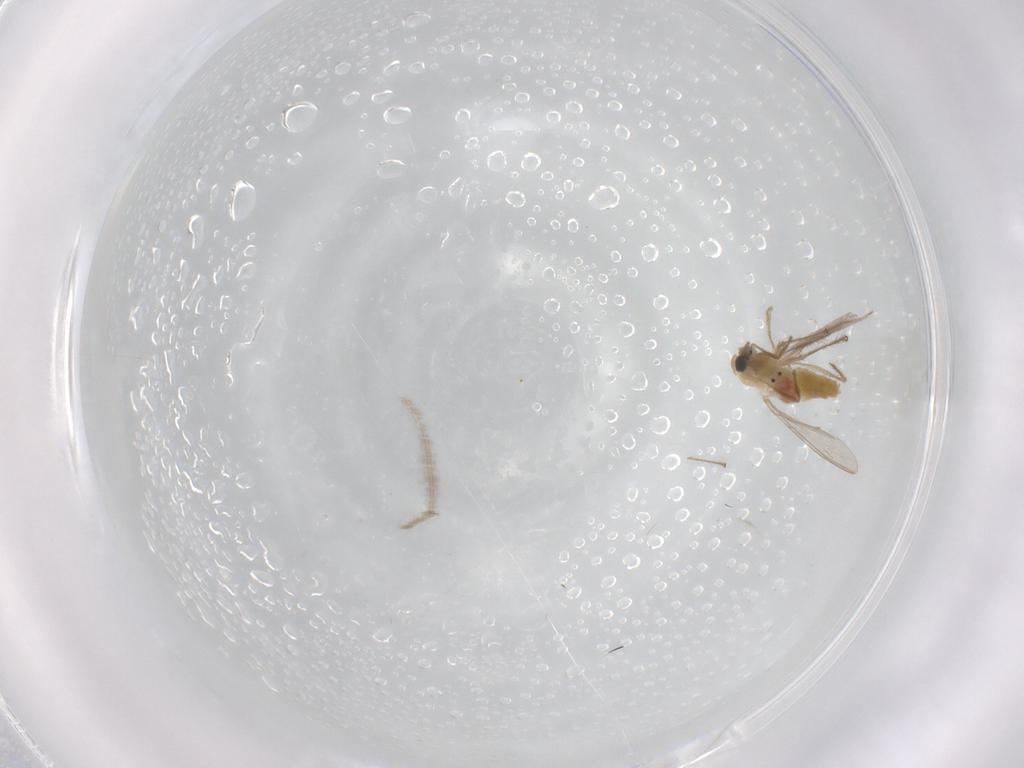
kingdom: Animalia
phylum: Arthropoda
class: Insecta
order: Diptera
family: Chironomidae
